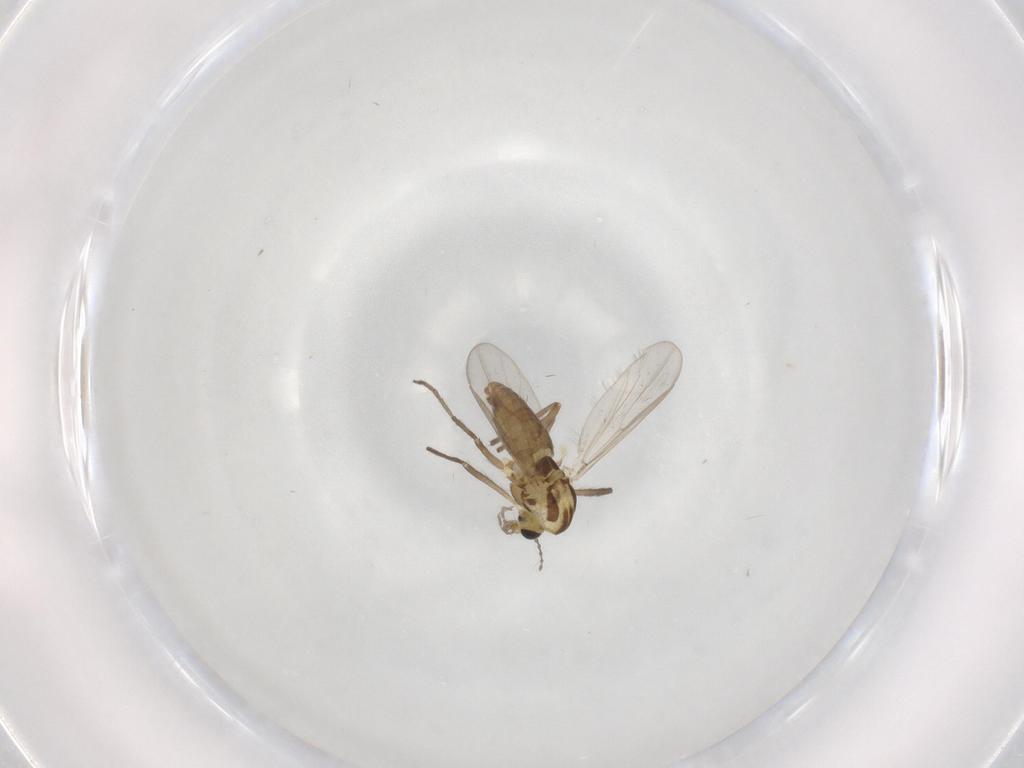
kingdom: Animalia
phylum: Arthropoda
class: Insecta
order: Diptera
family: Chironomidae
